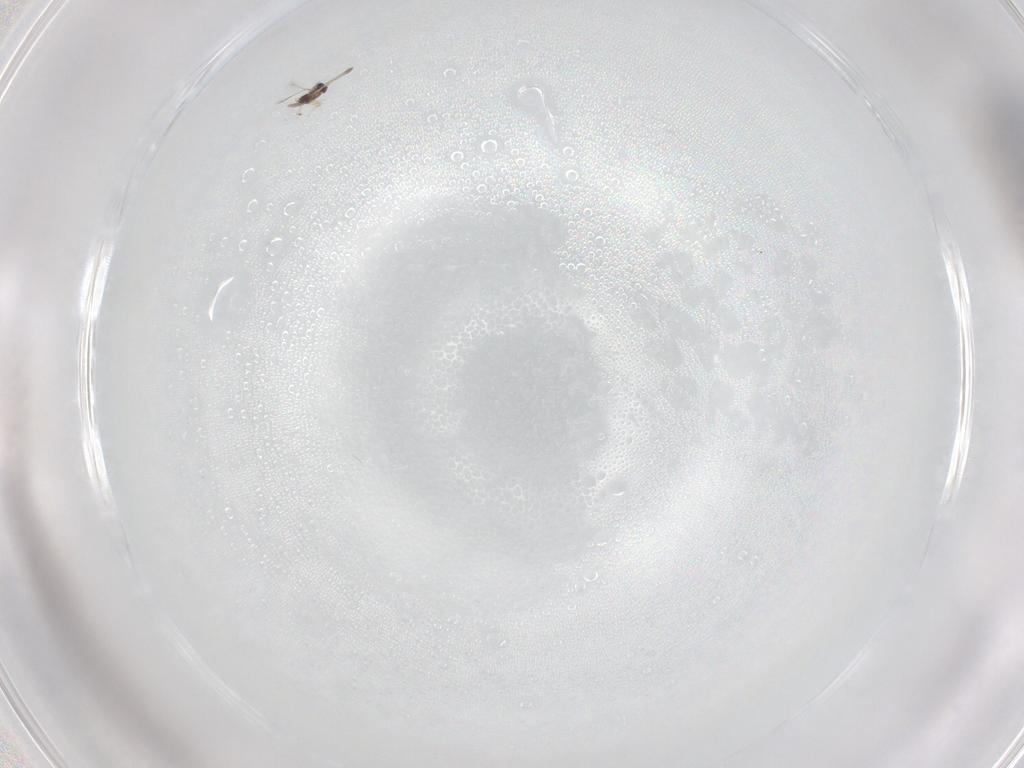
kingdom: Animalia
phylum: Arthropoda
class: Insecta
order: Hymenoptera
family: Mymaridae
